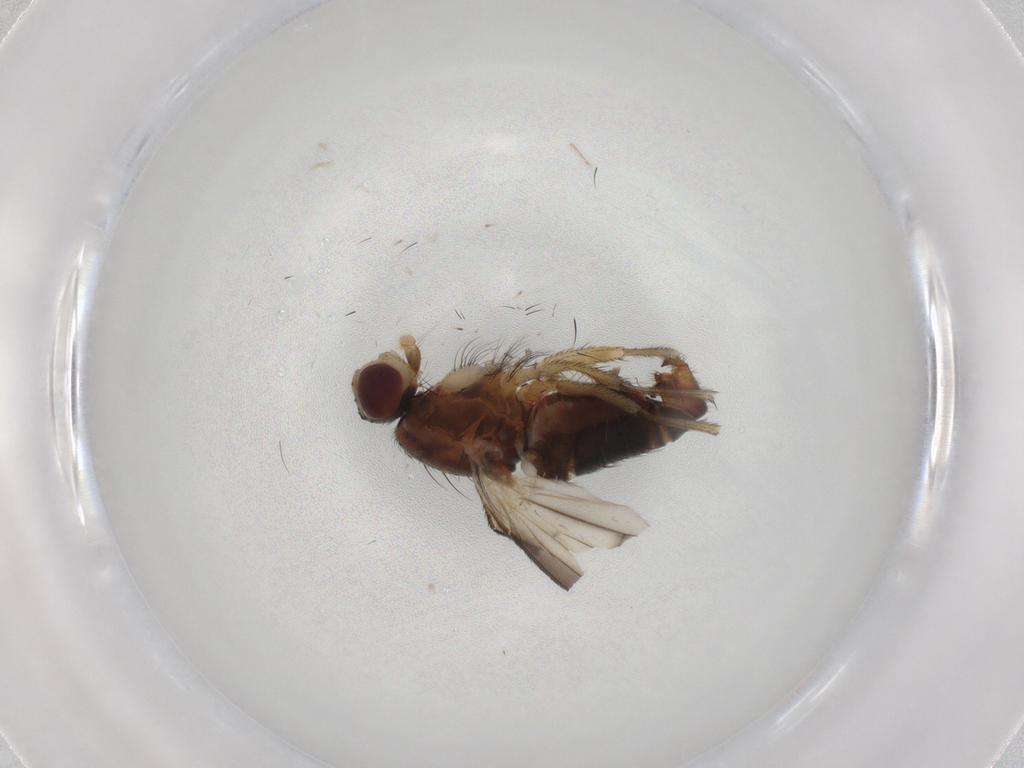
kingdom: Animalia
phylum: Arthropoda
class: Insecta
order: Diptera
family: Heleomyzidae
